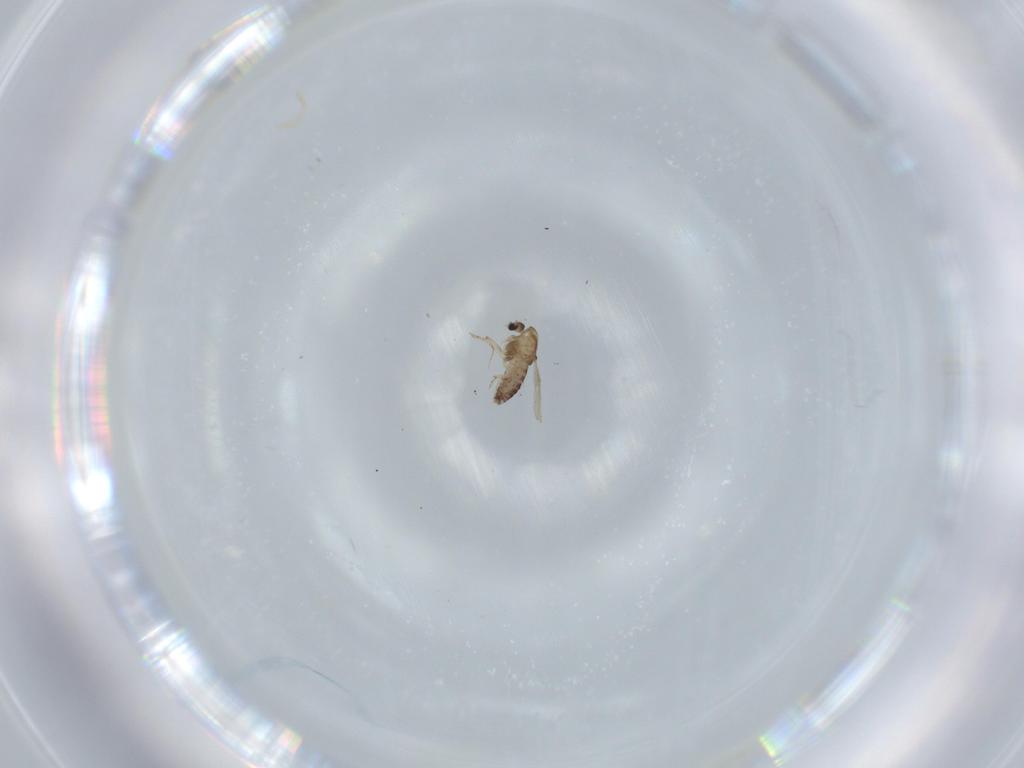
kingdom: Animalia
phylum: Arthropoda
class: Insecta
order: Diptera
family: Chironomidae
